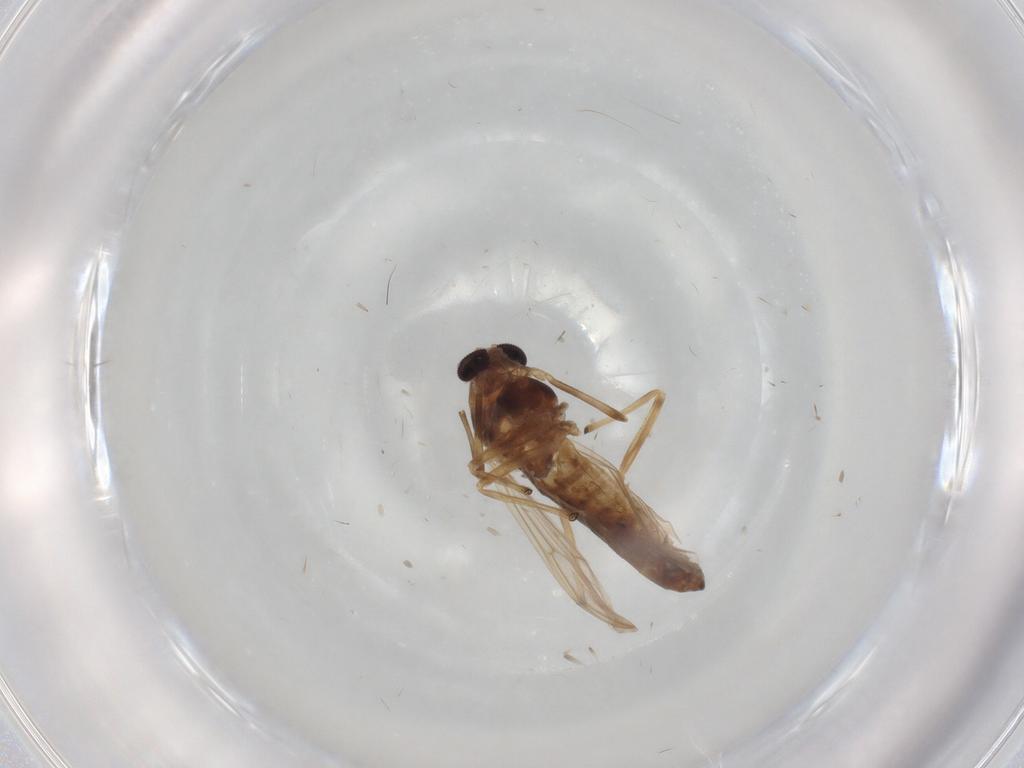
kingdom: Animalia
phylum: Arthropoda
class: Insecta
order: Diptera
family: Chironomidae
